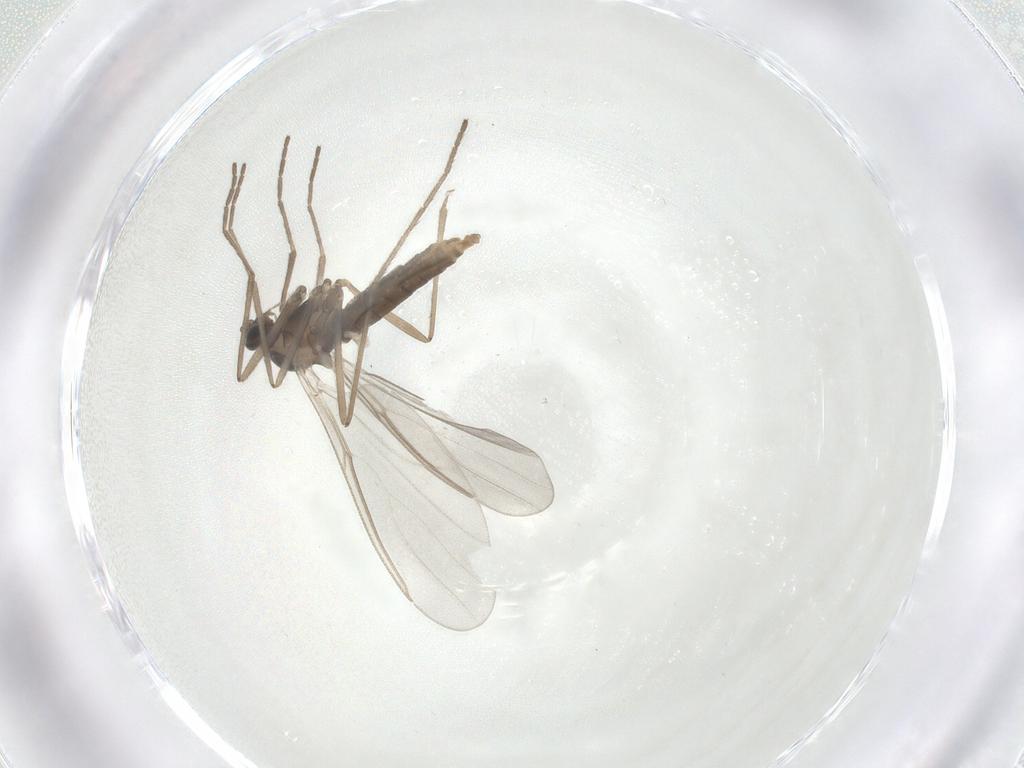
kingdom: Animalia
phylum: Arthropoda
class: Insecta
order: Diptera
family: Cecidomyiidae
